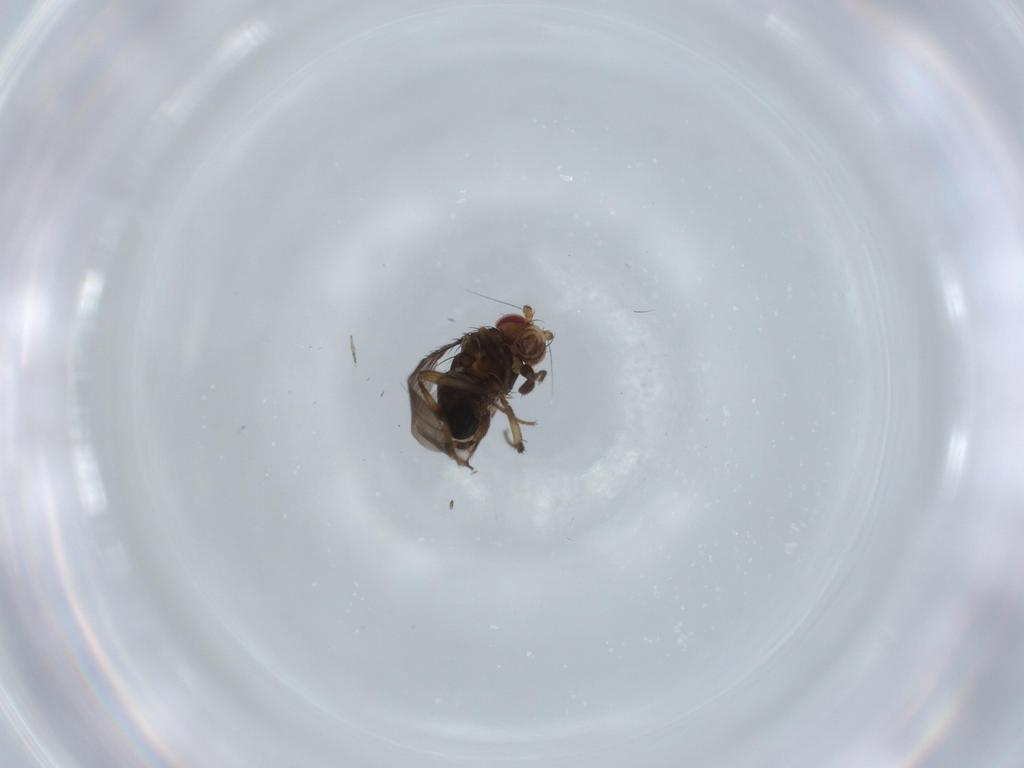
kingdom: Animalia
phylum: Arthropoda
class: Insecta
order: Diptera
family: Sphaeroceridae
